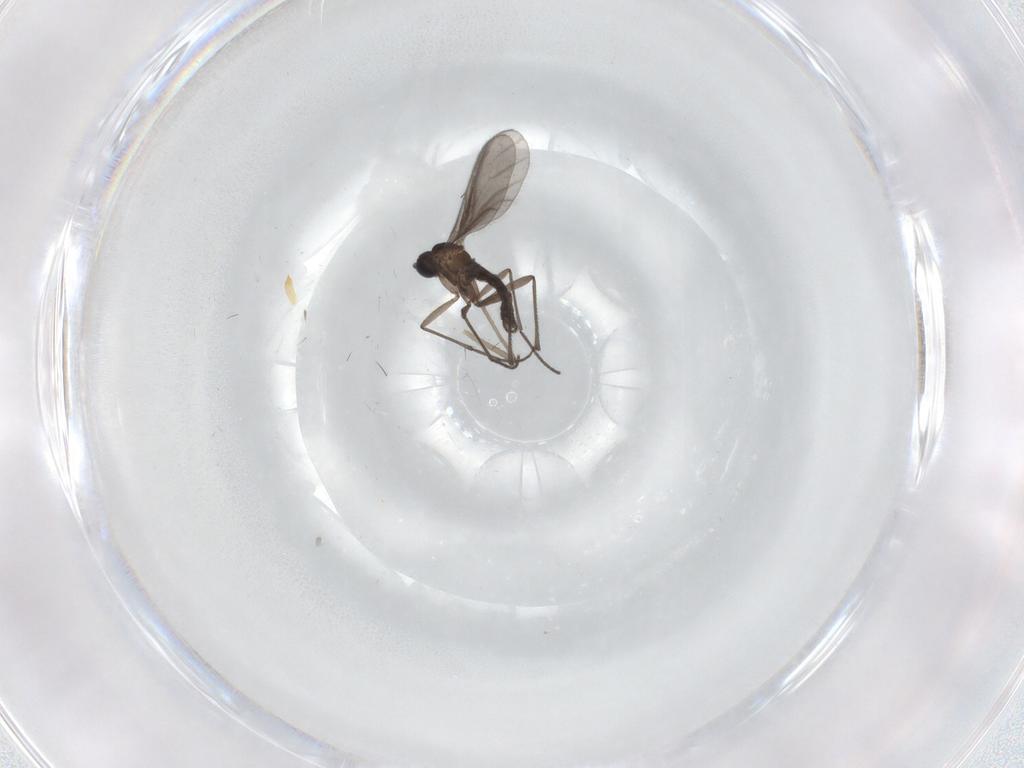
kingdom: Animalia
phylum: Arthropoda
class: Insecta
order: Diptera
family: Sciaridae
